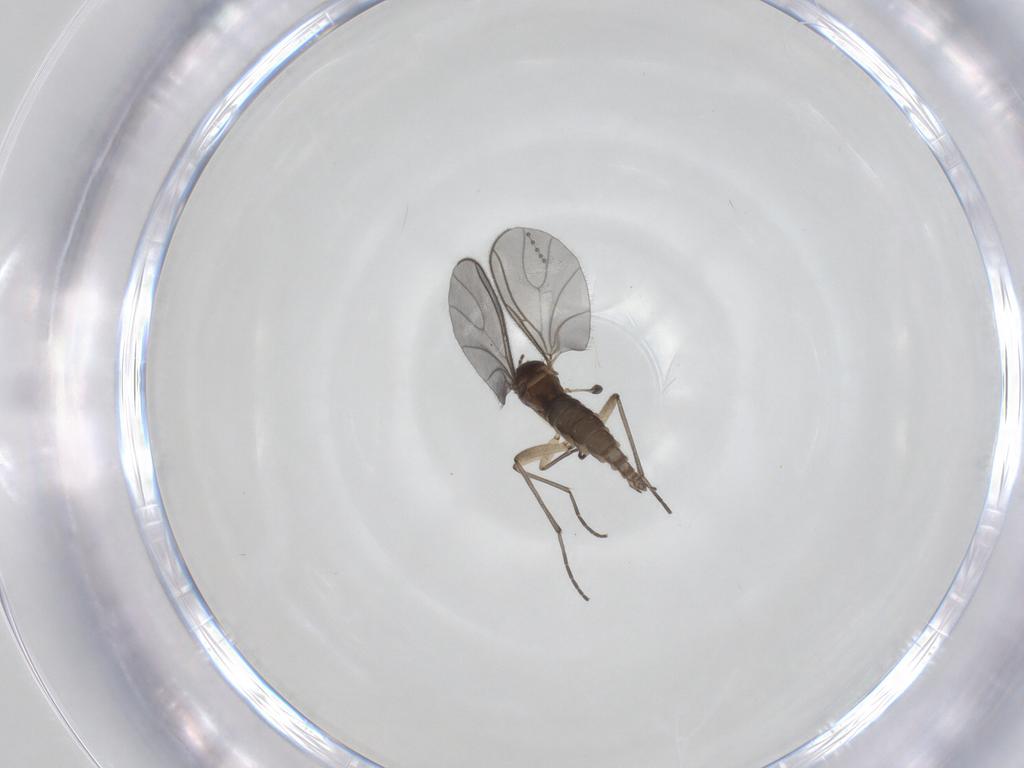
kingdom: Animalia
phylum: Arthropoda
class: Insecta
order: Diptera
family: Sciaridae
